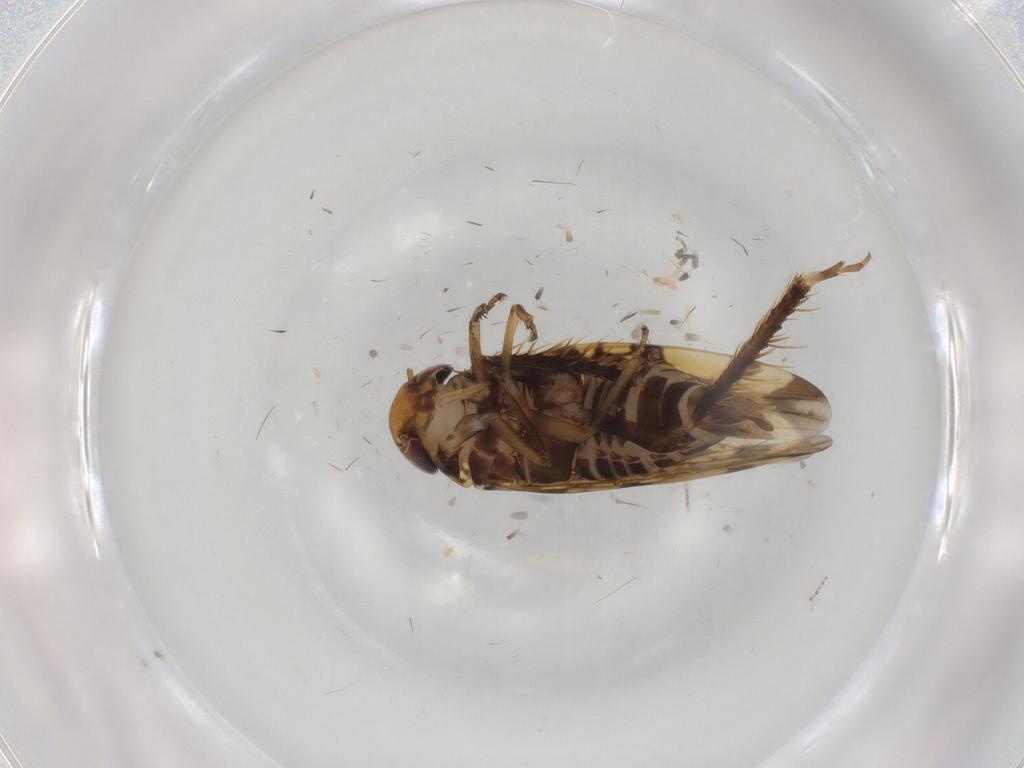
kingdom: Animalia
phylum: Arthropoda
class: Insecta
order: Hemiptera
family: Cicadellidae
